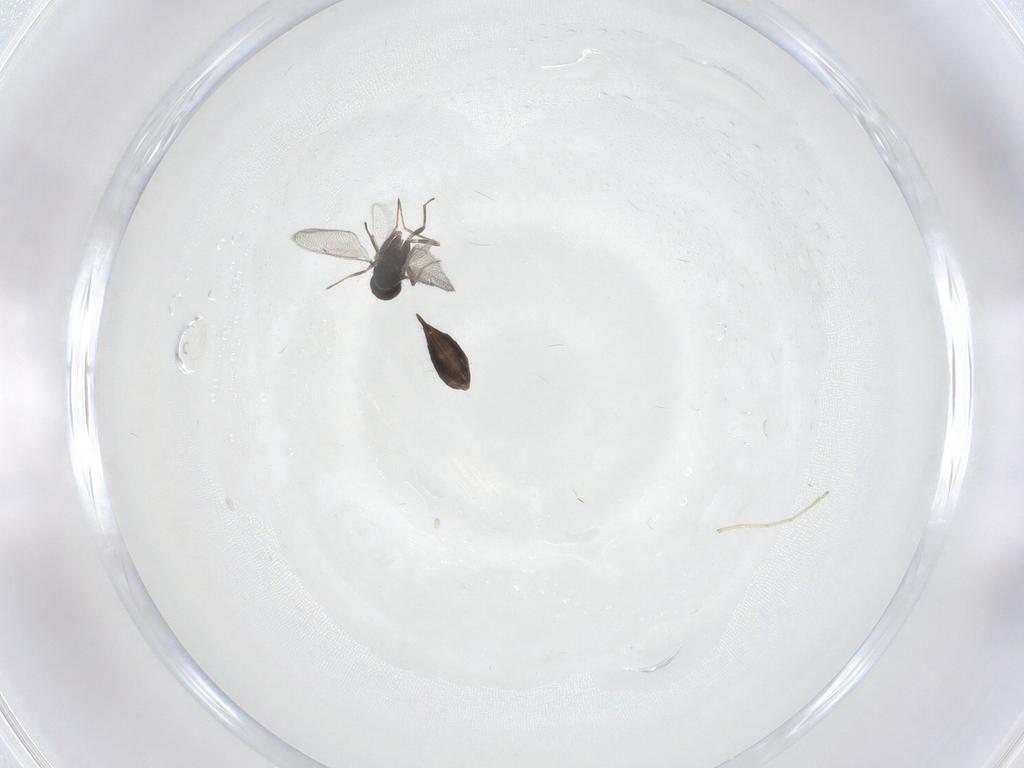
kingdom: Animalia
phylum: Arthropoda
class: Insecta
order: Hymenoptera
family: Eulophidae
